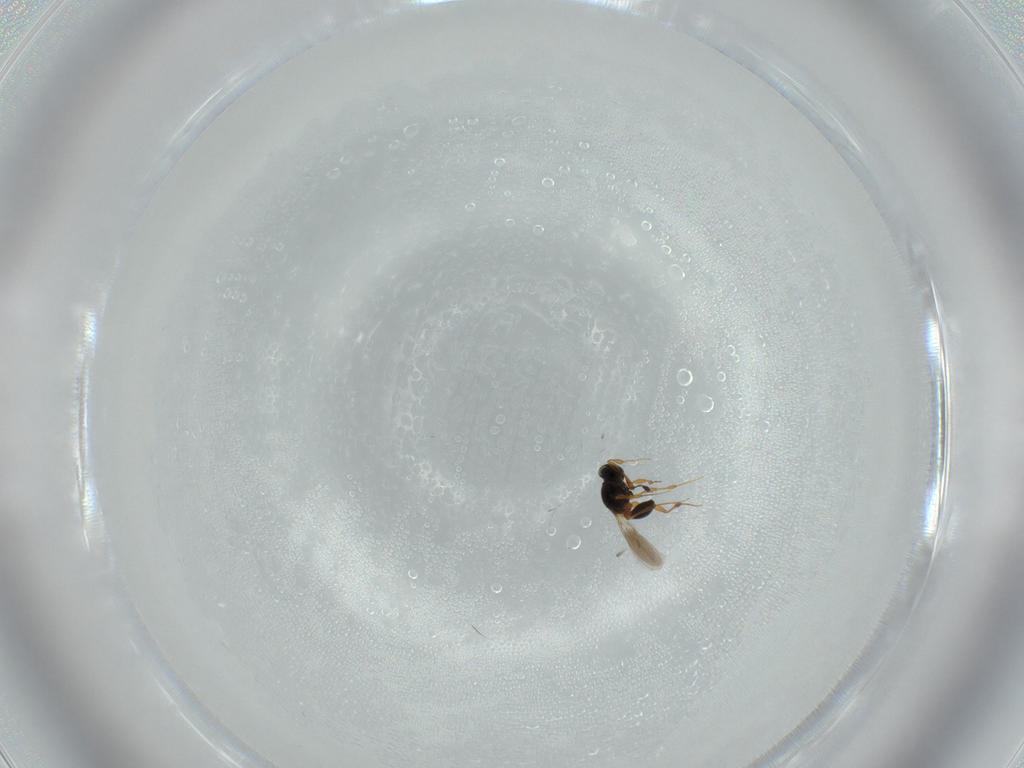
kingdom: Animalia
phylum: Arthropoda
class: Insecta
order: Hymenoptera
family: Platygastridae
